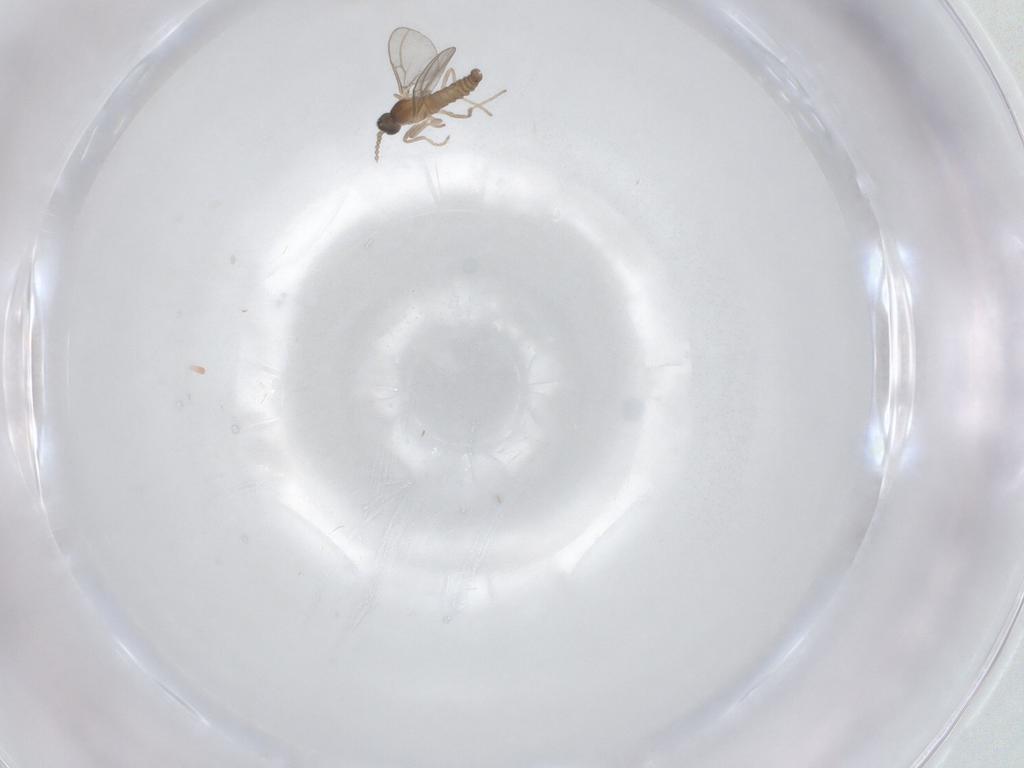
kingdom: Animalia
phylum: Arthropoda
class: Insecta
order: Diptera
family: Cecidomyiidae
